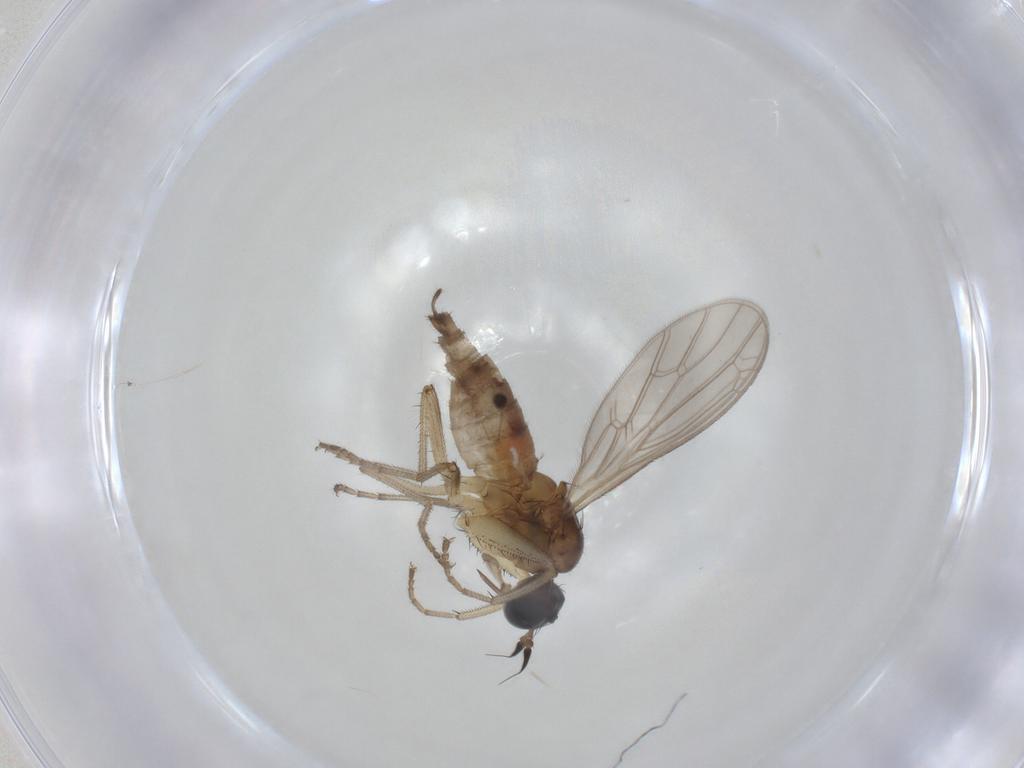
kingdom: Animalia
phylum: Arthropoda
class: Insecta
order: Diptera
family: Empididae
